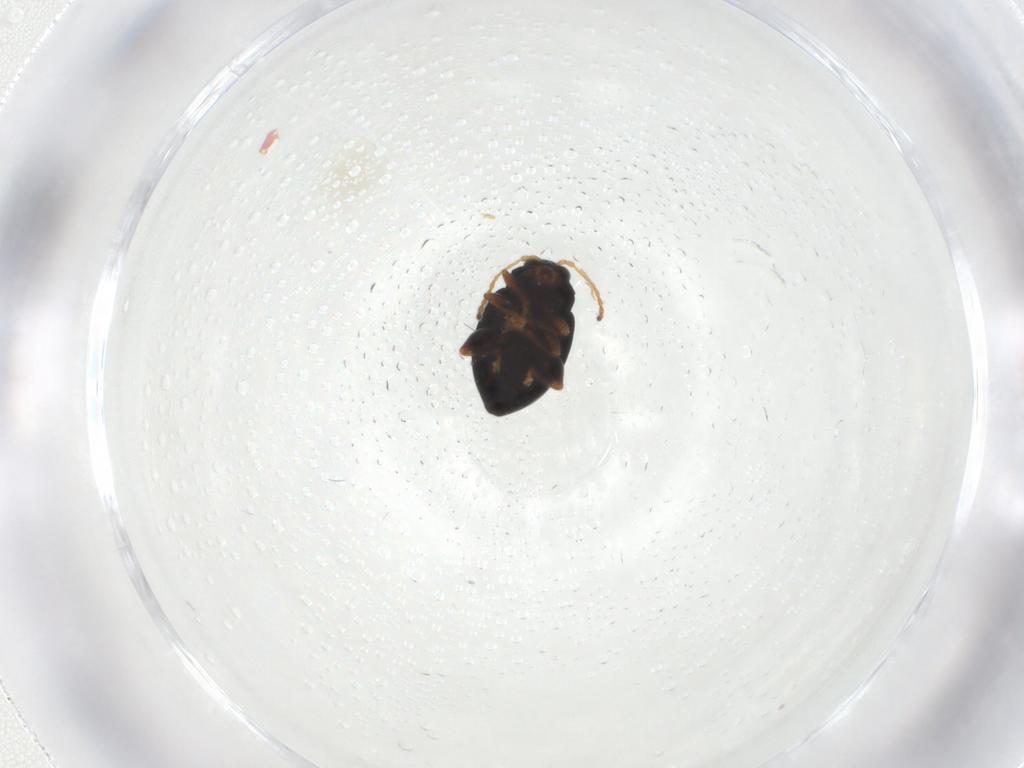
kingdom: Animalia
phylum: Arthropoda
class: Insecta
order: Coleoptera
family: Chrysomelidae
